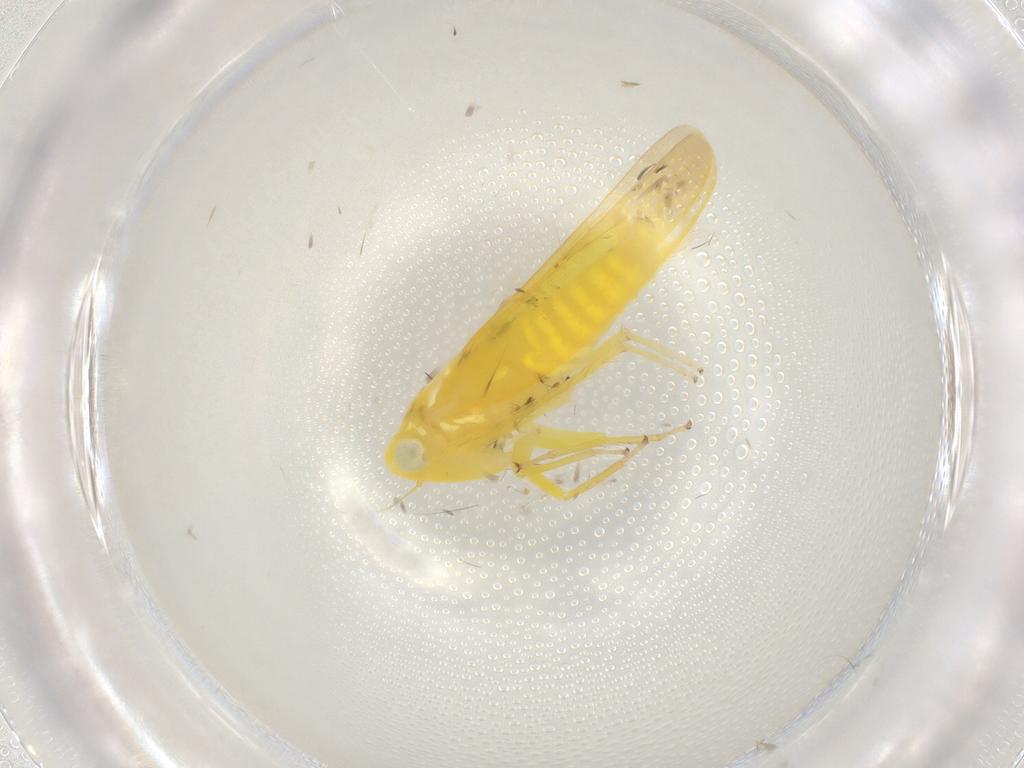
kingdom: Animalia
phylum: Arthropoda
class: Insecta
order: Hemiptera
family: Cicadellidae
